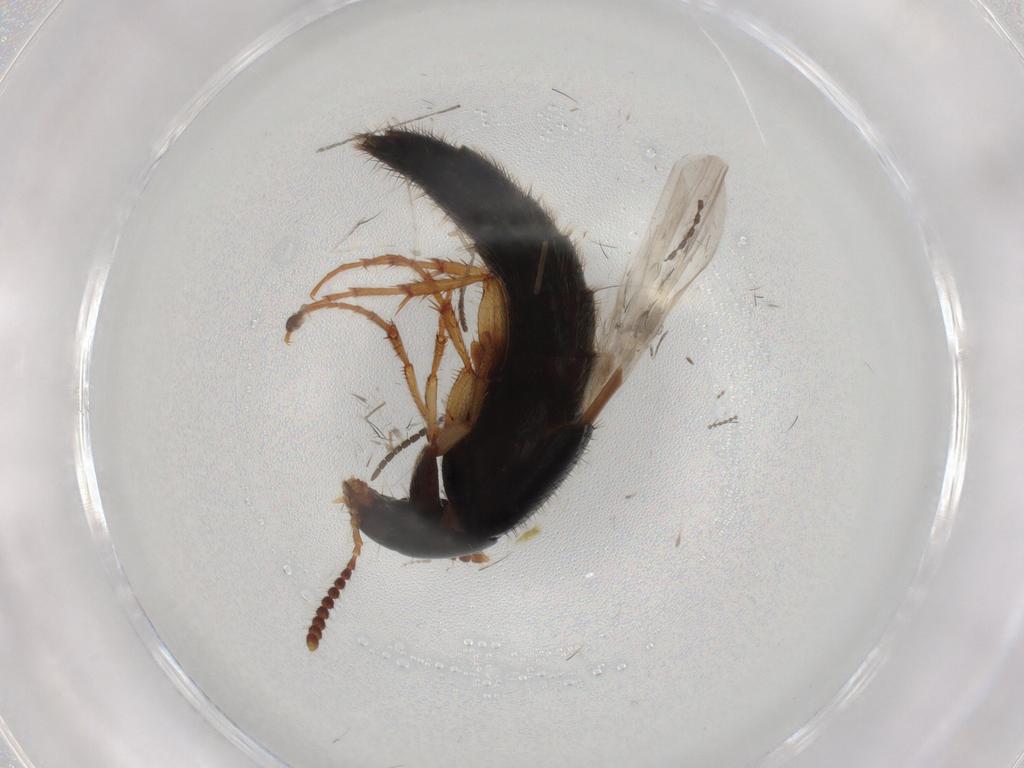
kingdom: Animalia
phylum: Arthropoda
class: Insecta
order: Coleoptera
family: Staphylinidae
